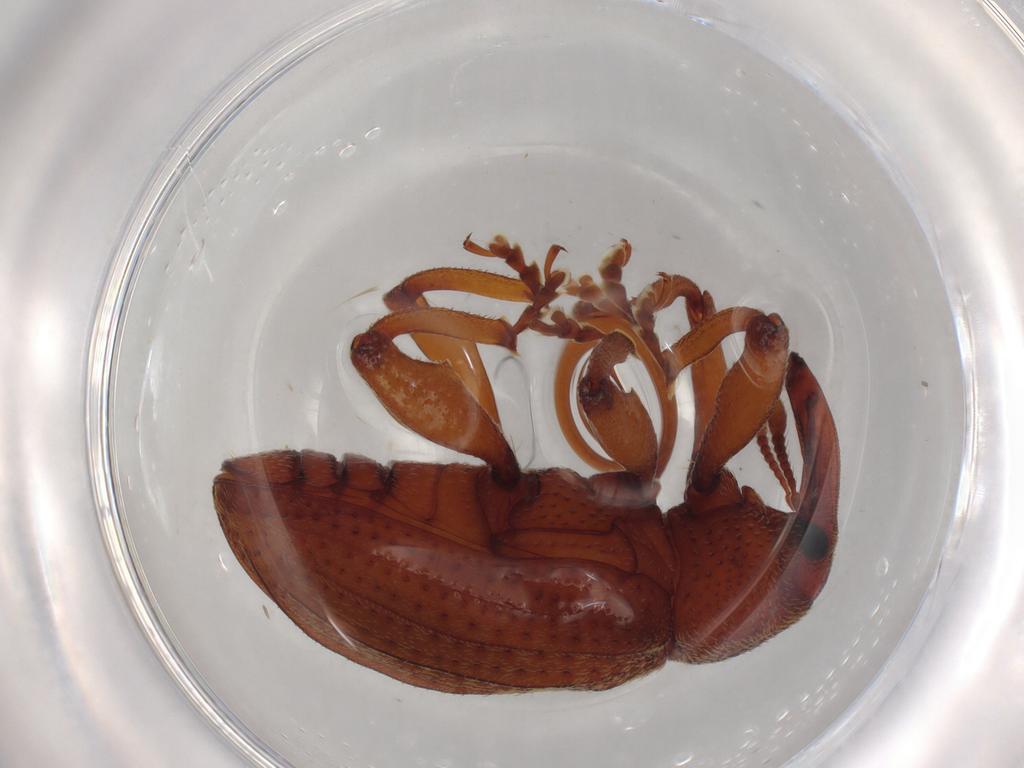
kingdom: Animalia
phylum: Arthropoda
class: Insecta
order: Coleoptera
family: Curculionidae
